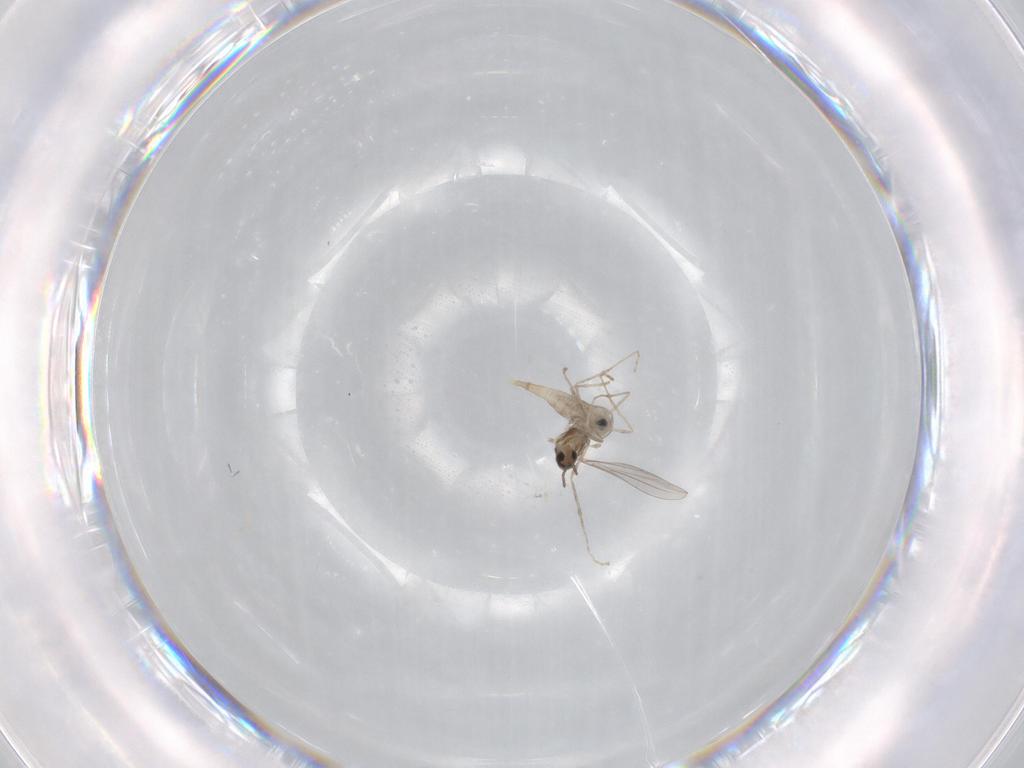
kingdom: Animalia
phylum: Arthropoda
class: Insecta
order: Diptera
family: Ceratopogonidae
